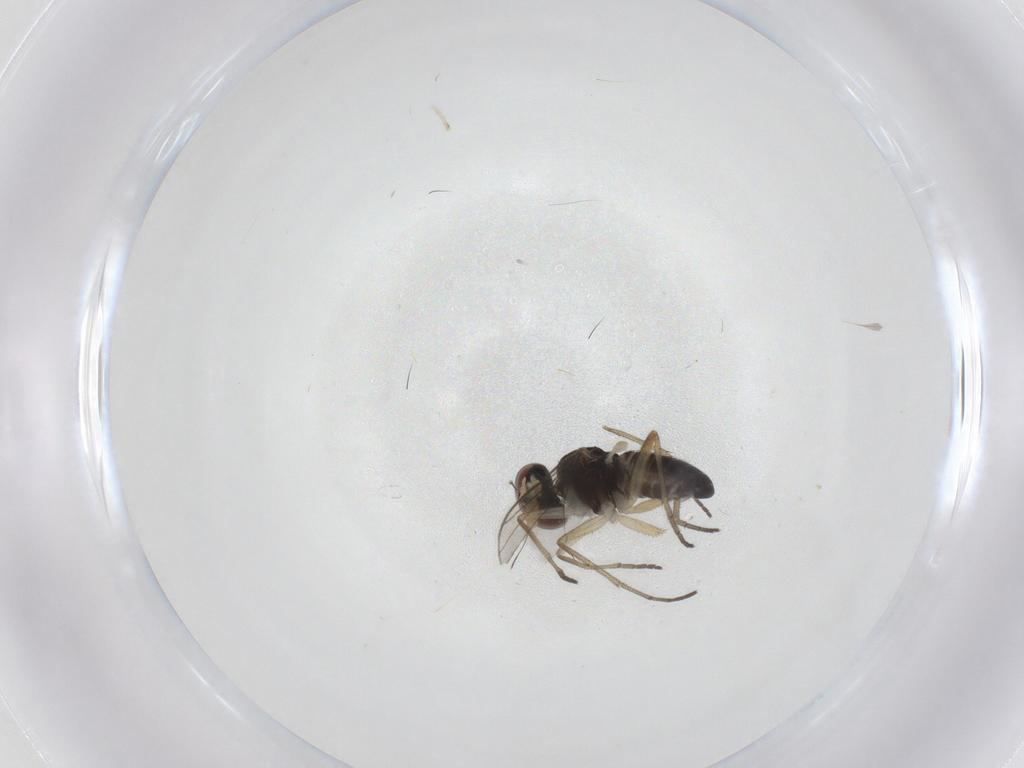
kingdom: Animalia
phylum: Arthropoda
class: Insecta
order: Diptera
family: Dolichopodidae
